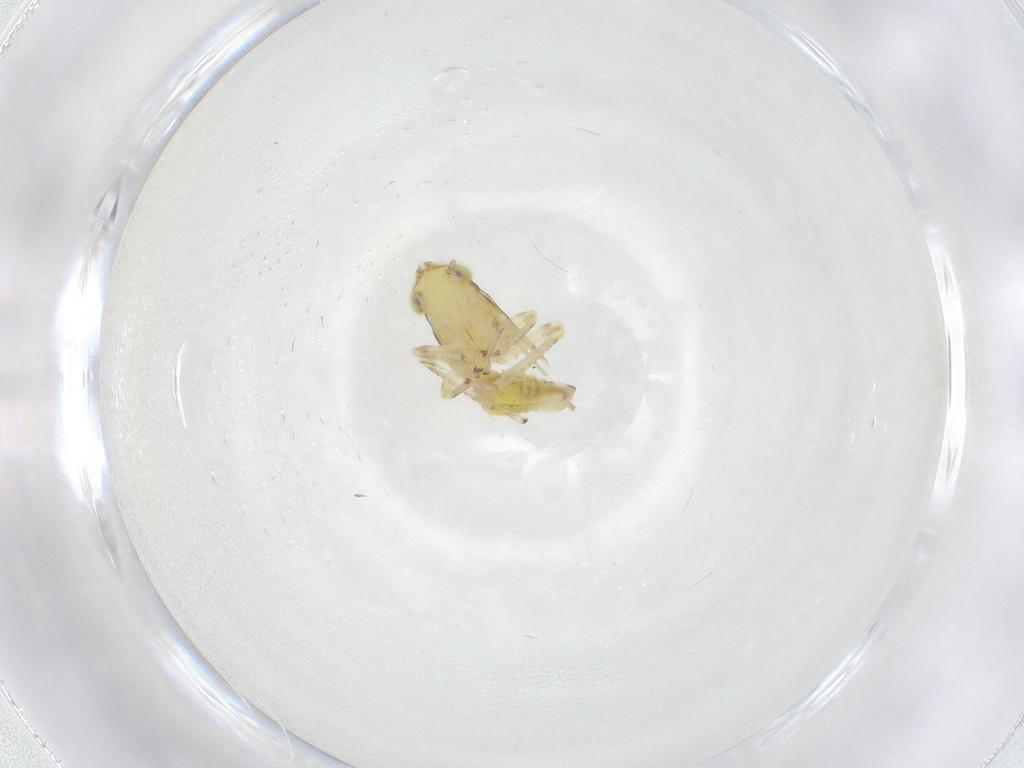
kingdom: Animalia
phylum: Arthropoda
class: Insecta
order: Hemiptera
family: Cicadellidae
